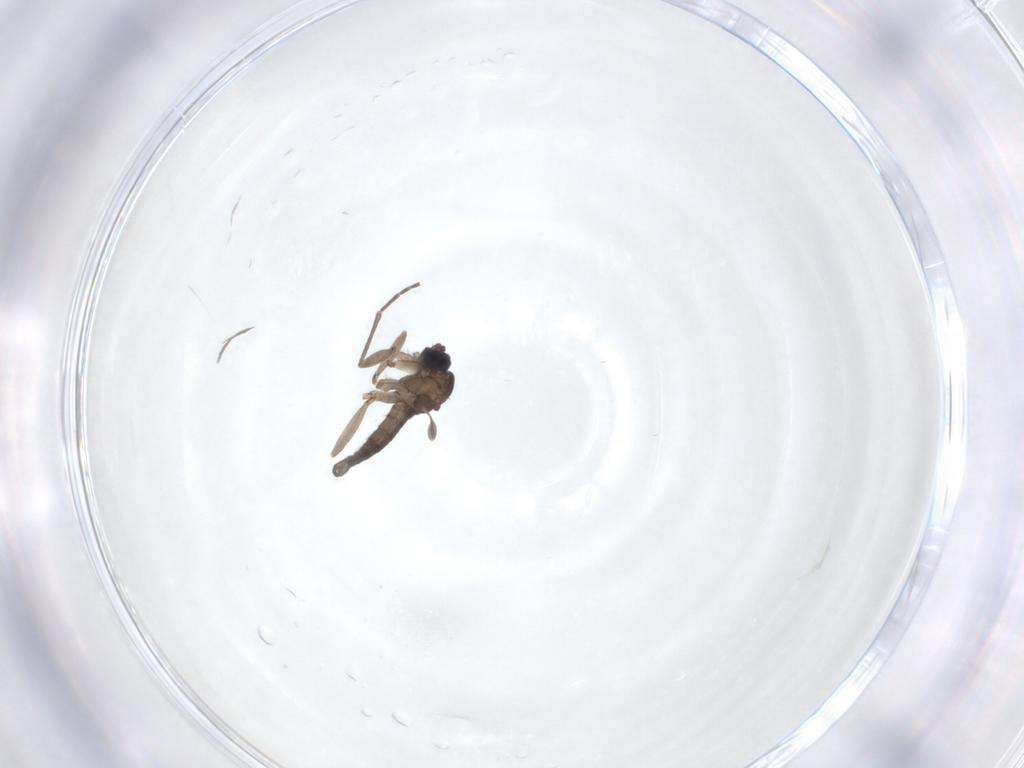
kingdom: Animalia
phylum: Arthropoda
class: Insecta
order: Diptera
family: Sciaridae
